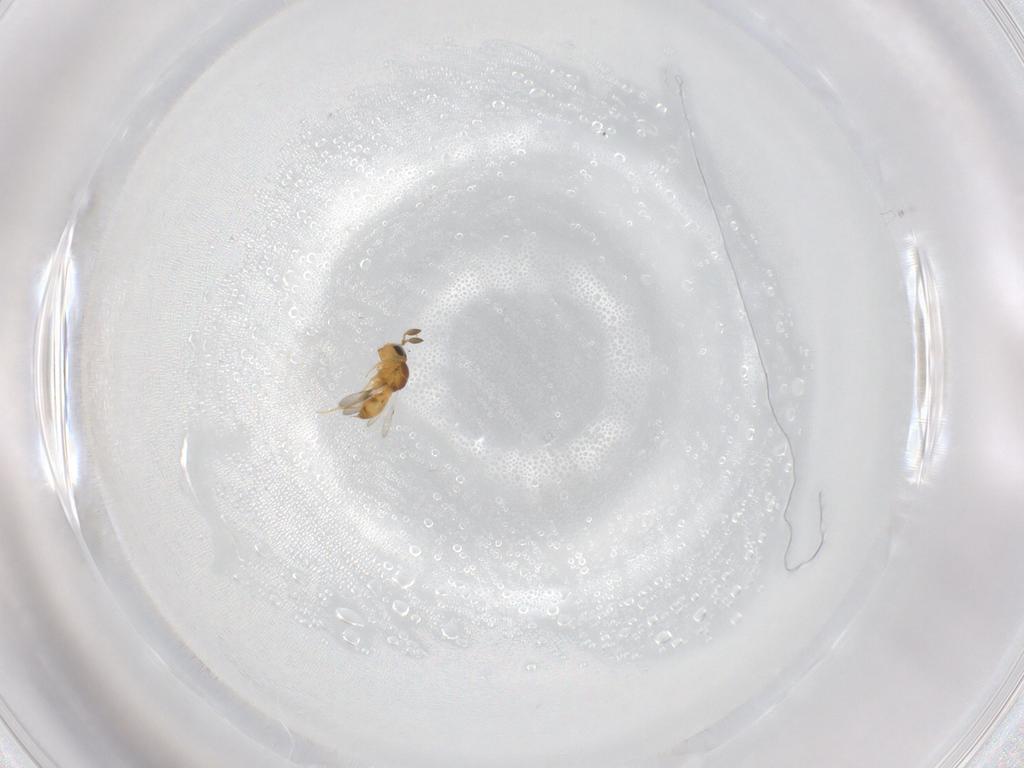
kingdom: Animalia
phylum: Arthropoda
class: Insecta
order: Hymenoptera
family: Scelionidae
